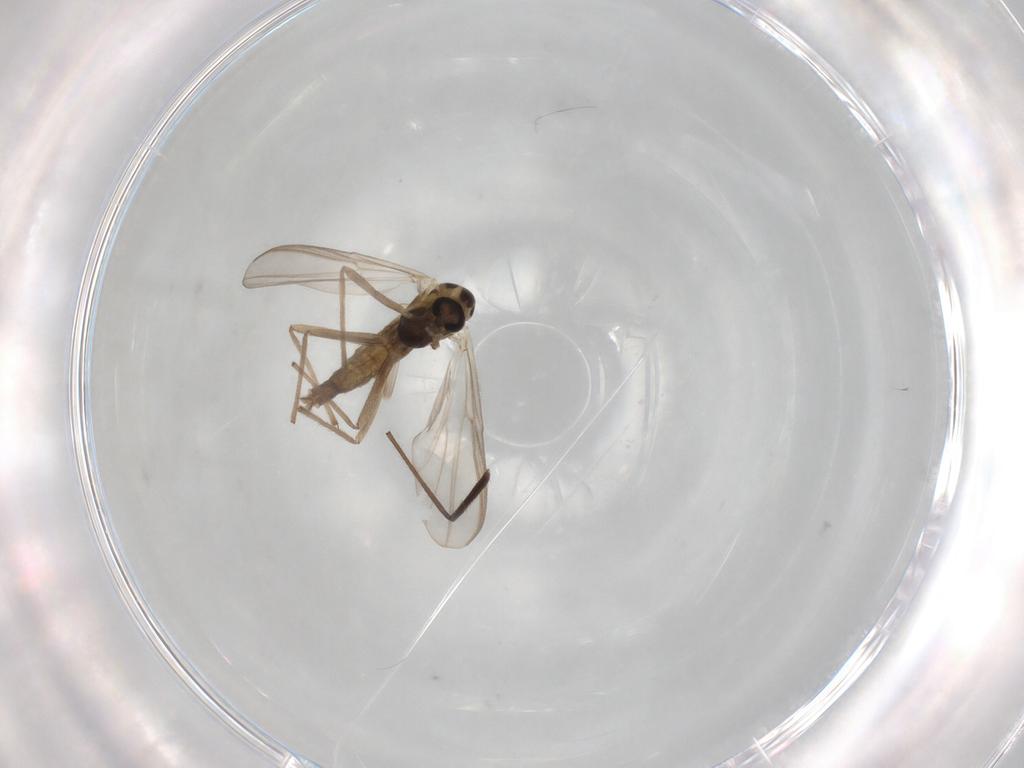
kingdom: Animalia
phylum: Arthropoda
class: Insecta
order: Diptera
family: Chironomidae
